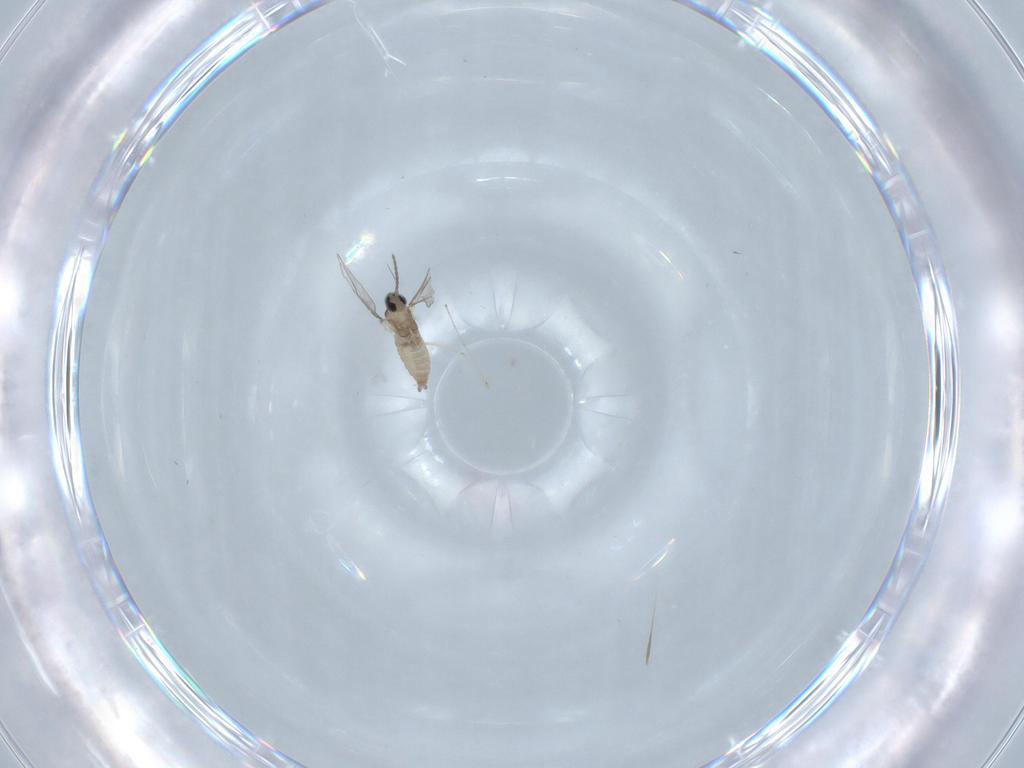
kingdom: Animalia
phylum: Arthropoda
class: Insecta
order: Diptera
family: Cecidomyiidae
